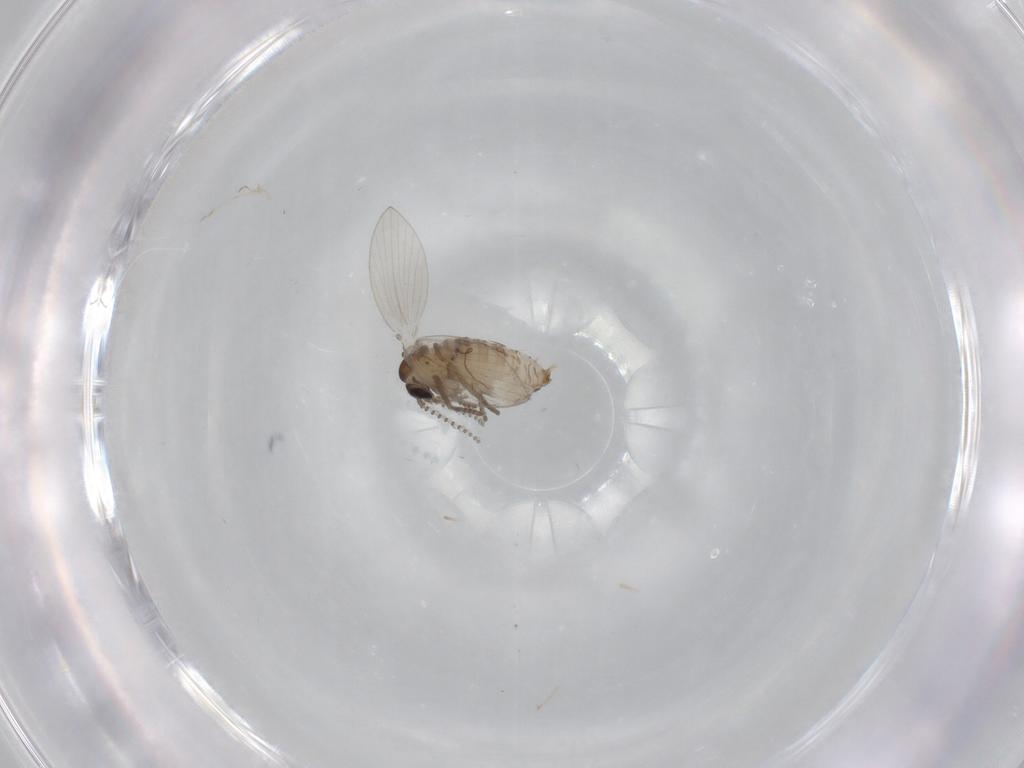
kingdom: Animalia
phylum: Arthropoda
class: Insecta
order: Diptera
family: Psychodidae
